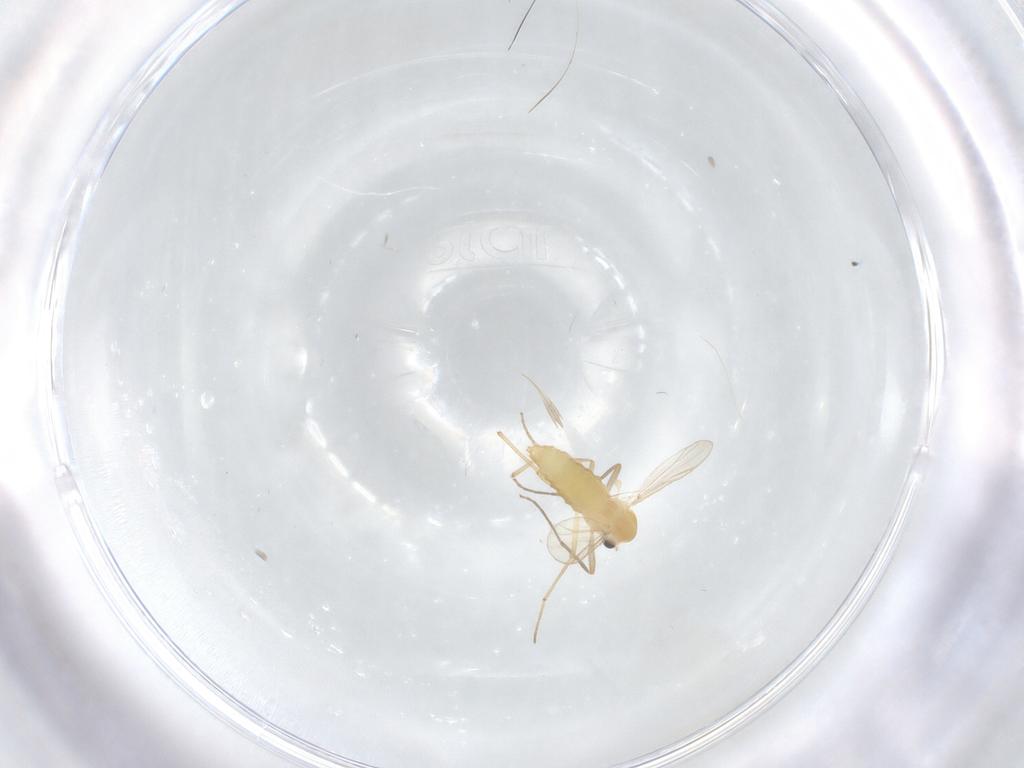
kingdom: Animalia
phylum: Arthropoda
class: Insecta
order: Diptera
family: Chironomidae
